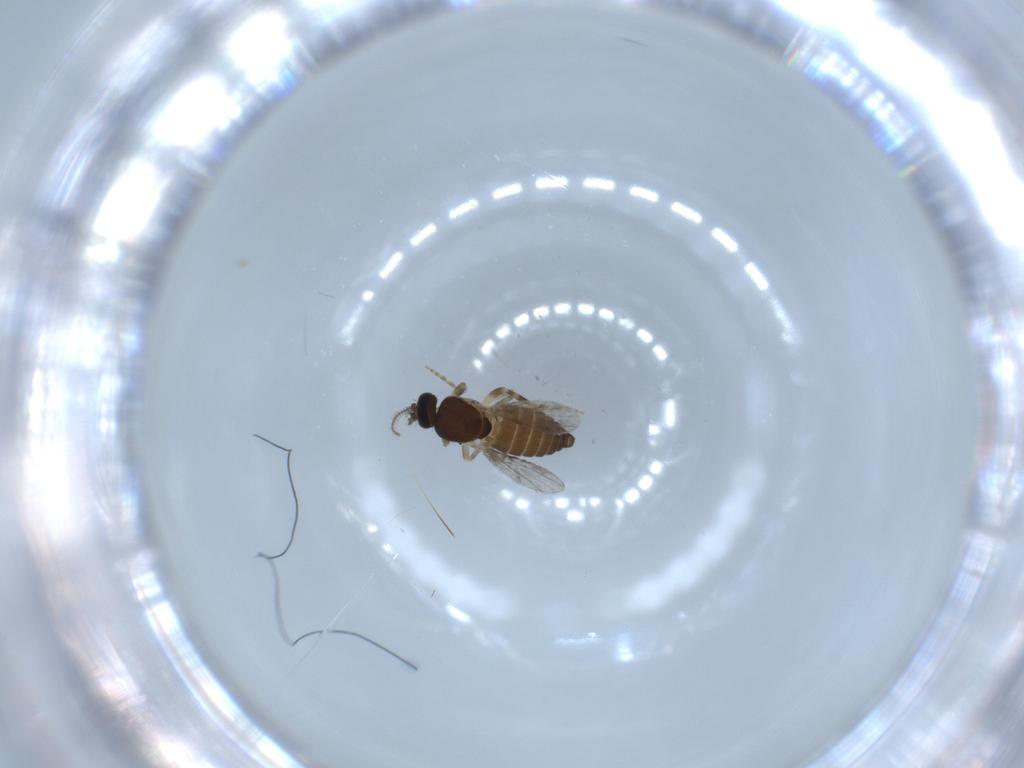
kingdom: Animalia
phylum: Arthropoda
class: Insecta
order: Diptera
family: Ceratopogonidae
